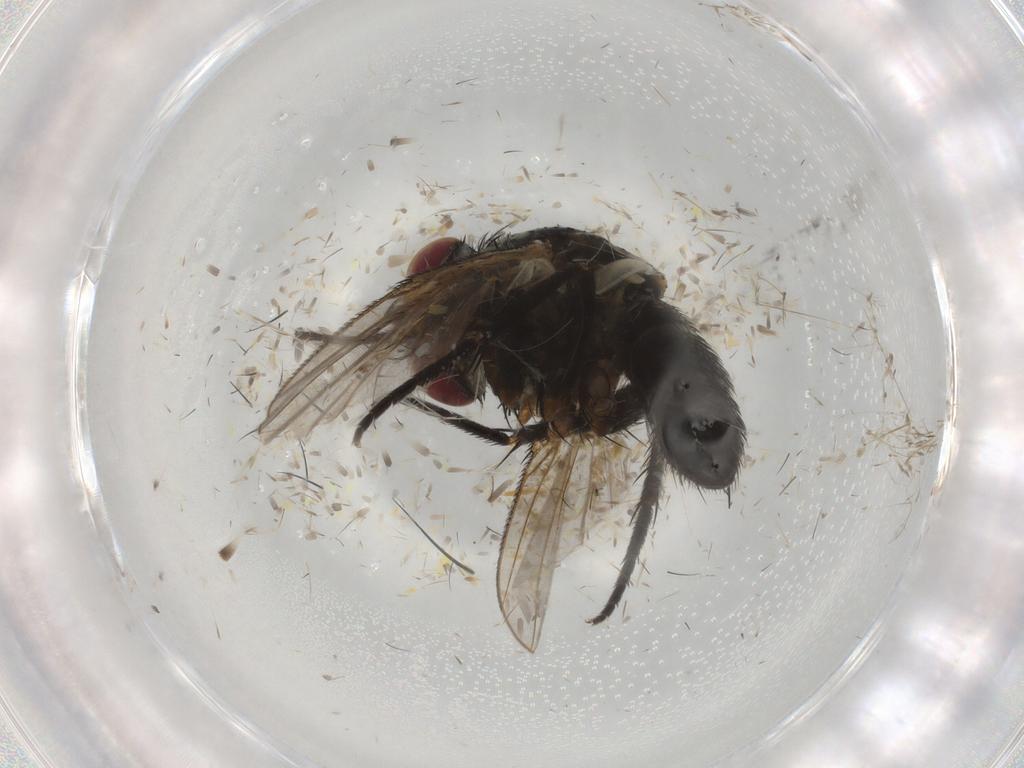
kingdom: Animalia
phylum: Arthropoda
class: Insecta
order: Diptera
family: Tachinidae
